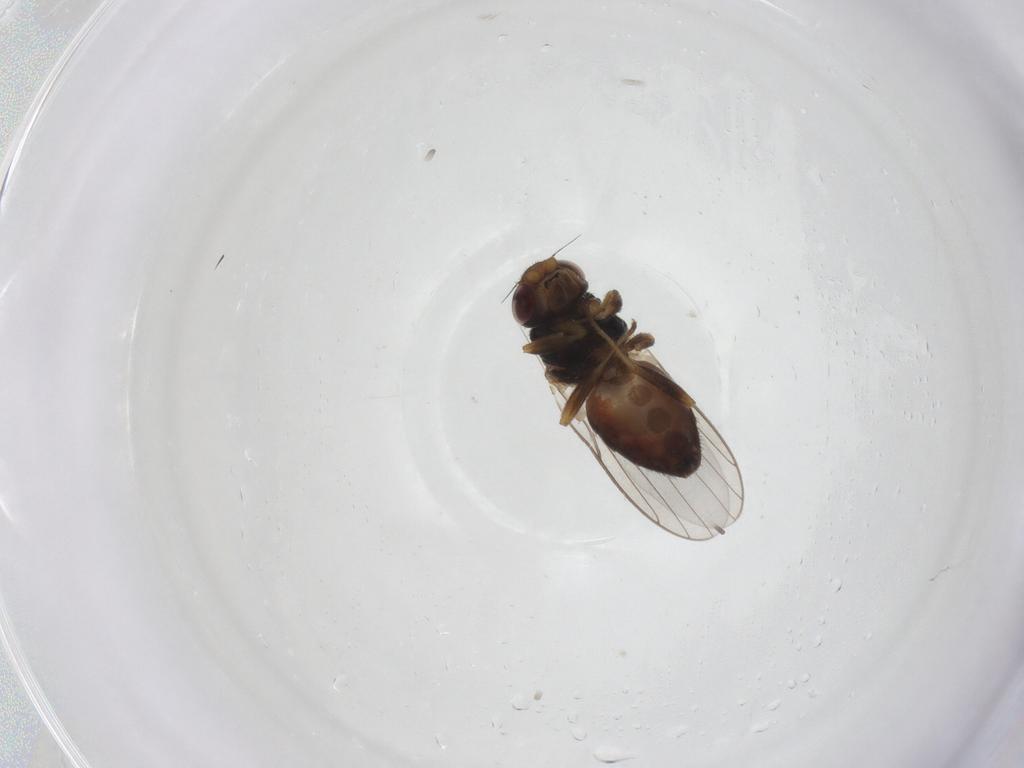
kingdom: Animalia
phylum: Arthropoda
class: Insecta
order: Diptera
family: Chloropidae
